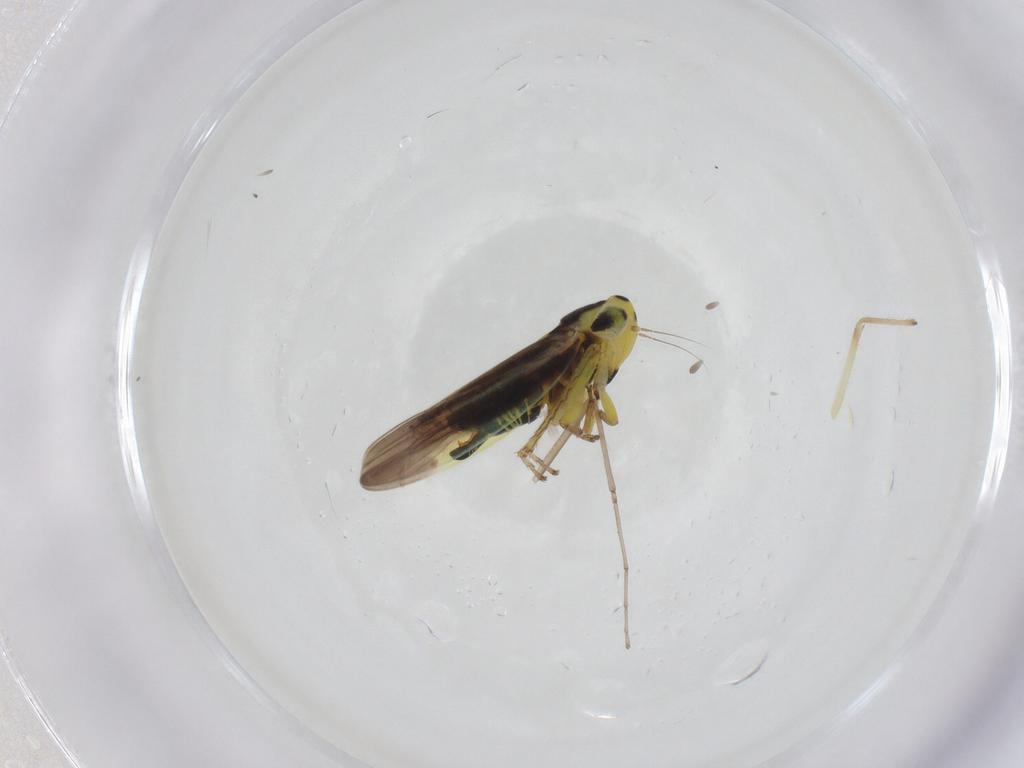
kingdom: Animalia
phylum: Arthropoda
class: Insecta
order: Hemiptera
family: Cicadellidae
